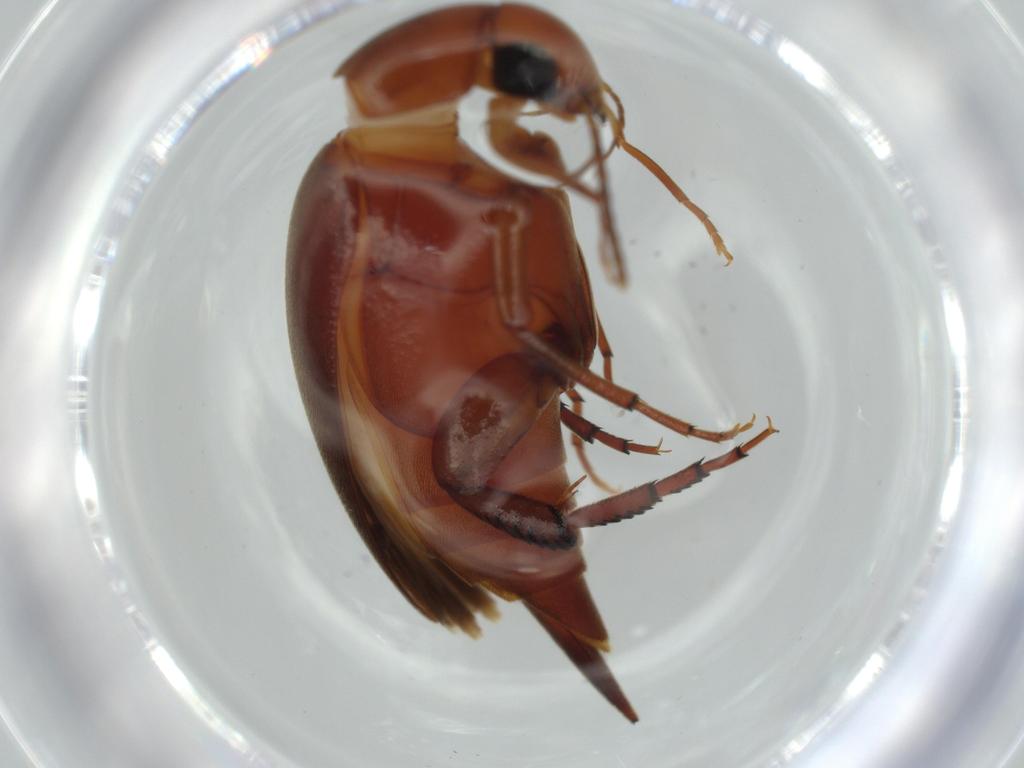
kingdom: Animalia
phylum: Arthropoda
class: Insecta
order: Coleoptera
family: Mordellidae
